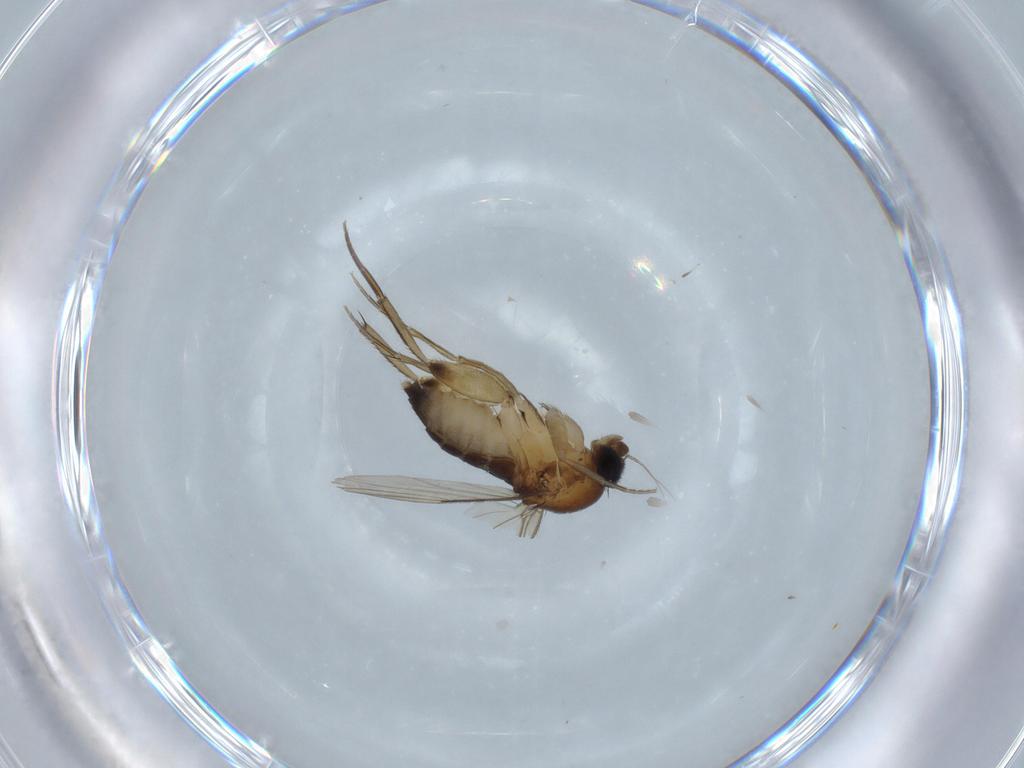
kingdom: Animalia
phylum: Arthropoda
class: Insecta
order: Diptera
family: Phoridae
